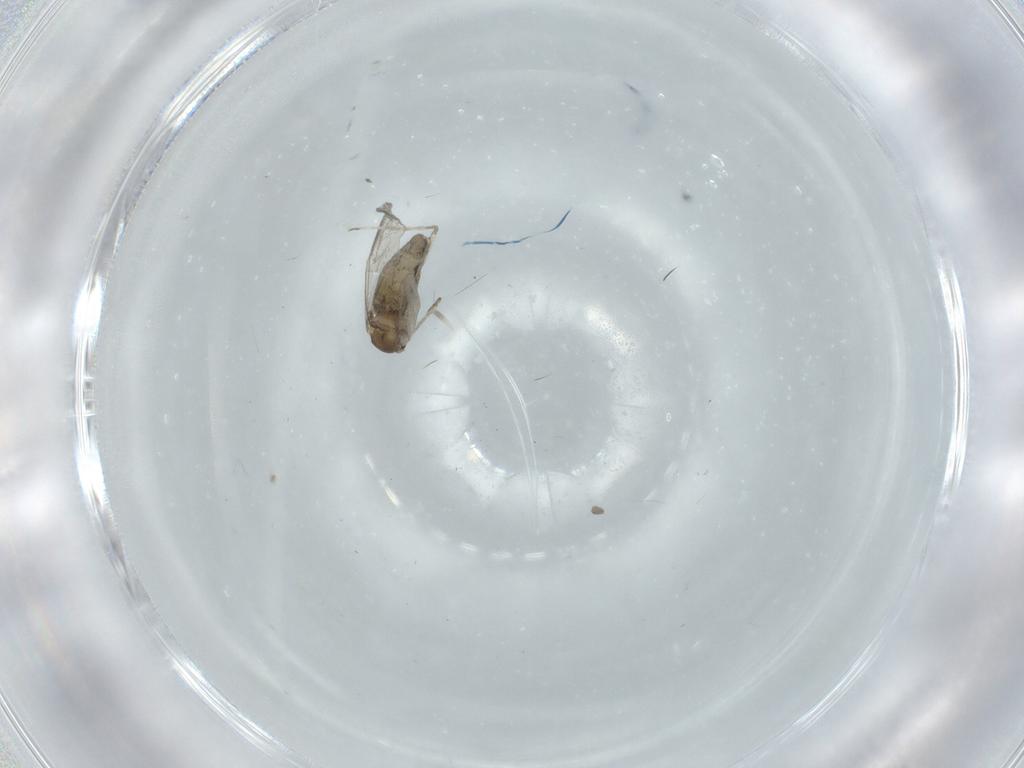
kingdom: Animalia
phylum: Arthropoda
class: Insecta
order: Diptera
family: Cecidomyiidae
